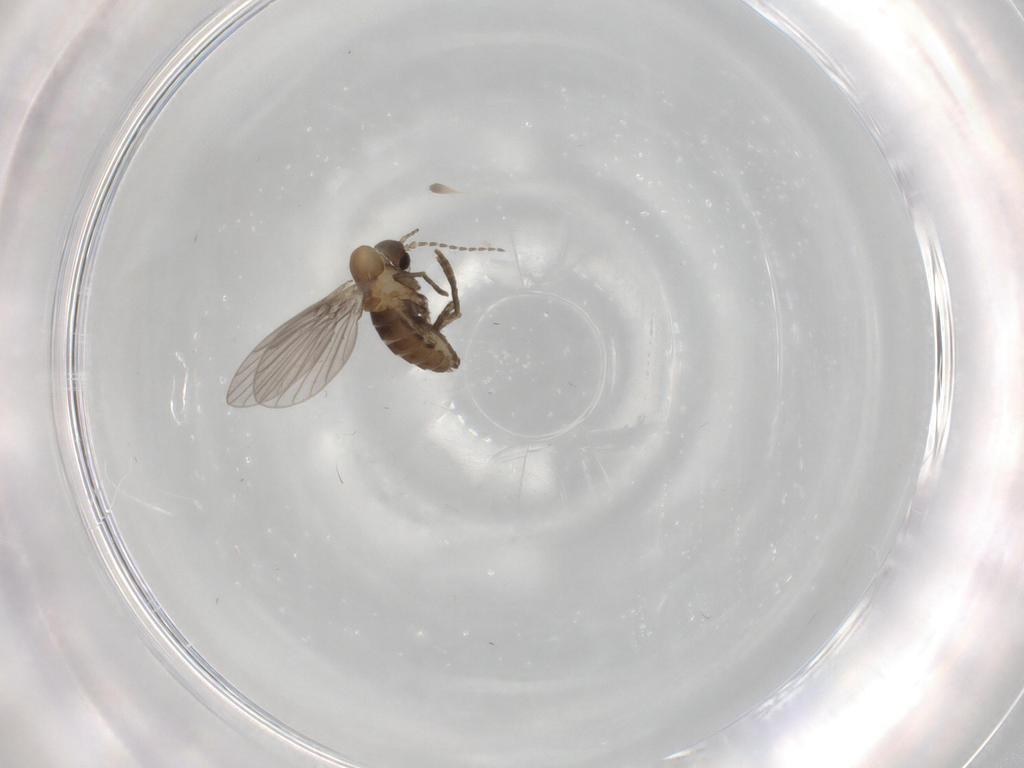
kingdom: Animalia
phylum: Arthropoda
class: Insecta
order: Diptera
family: Psychodidae
